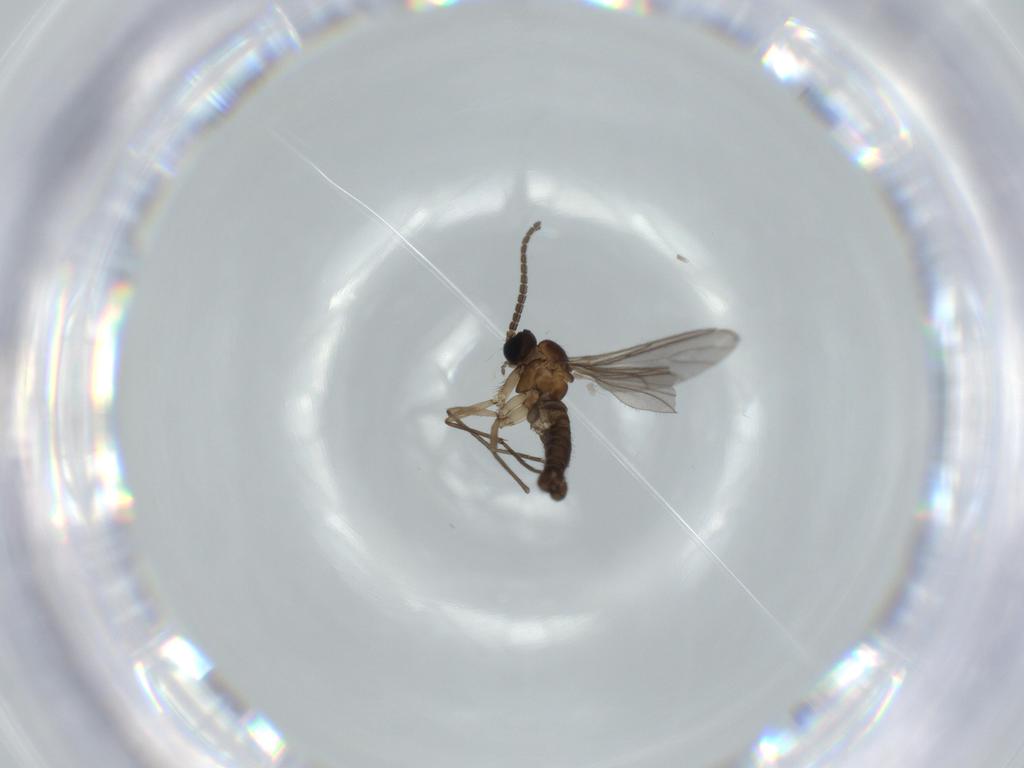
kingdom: Animalia
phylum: Arthropoda
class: Insecta
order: Diptera
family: Sciaridae
